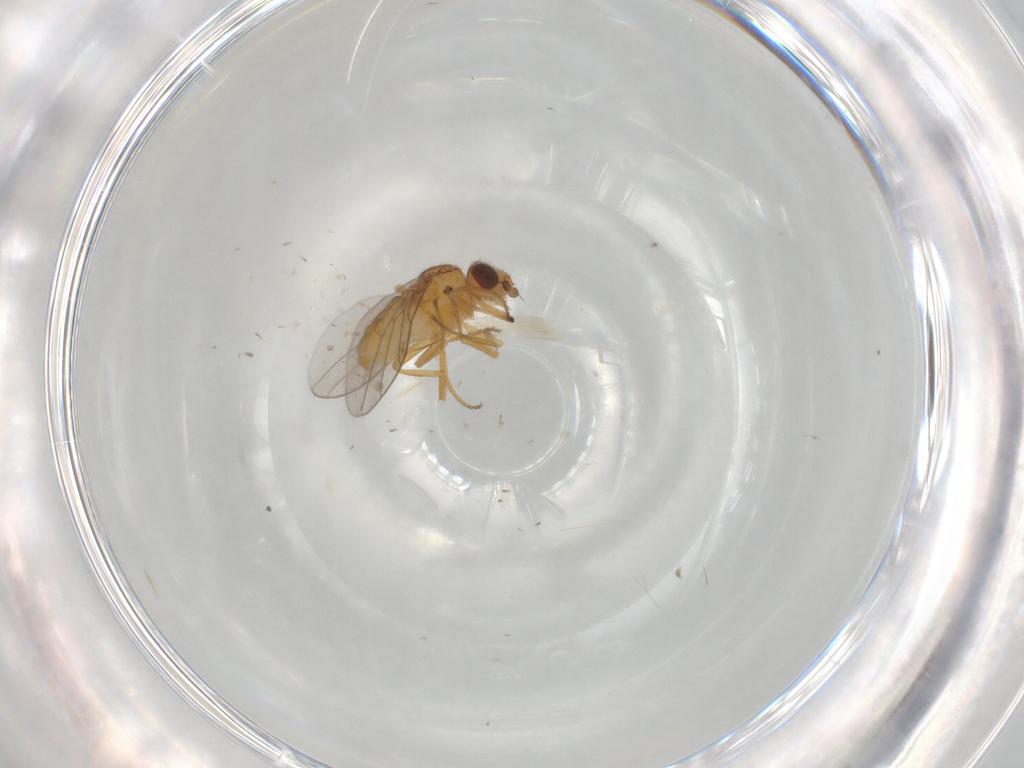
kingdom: Animalia
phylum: Arthropoda
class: Insecta
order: Diptera
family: Chloropidae
